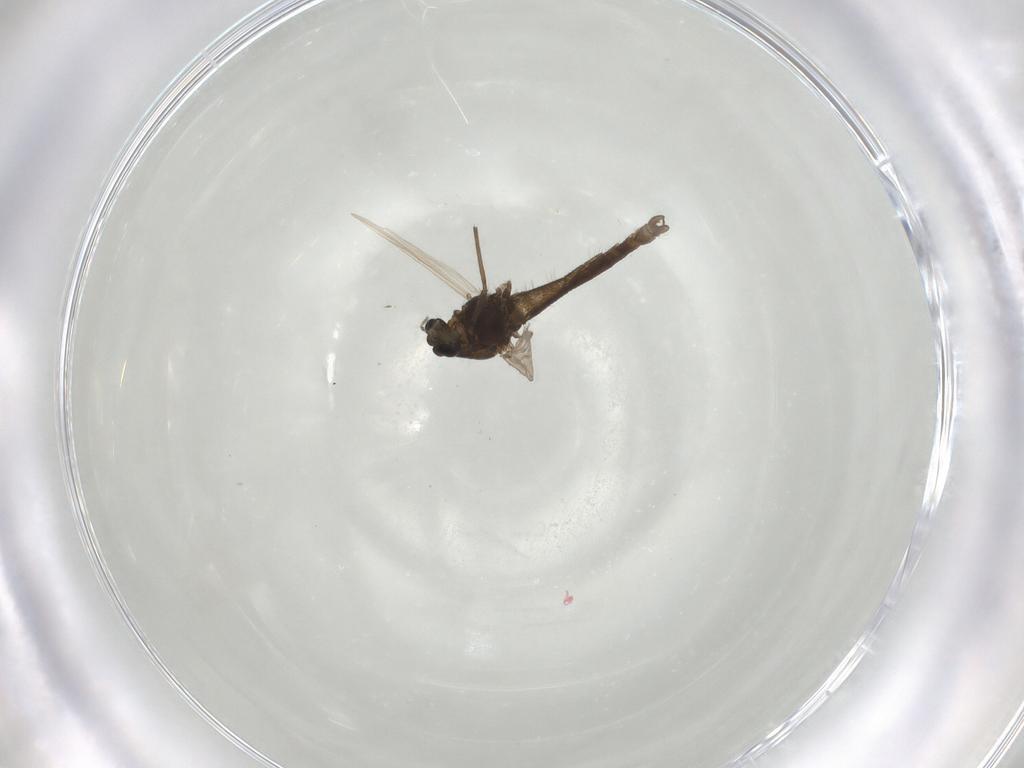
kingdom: Animalia
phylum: Arthropoda
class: Insecta
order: Diptera
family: Chironomidae
